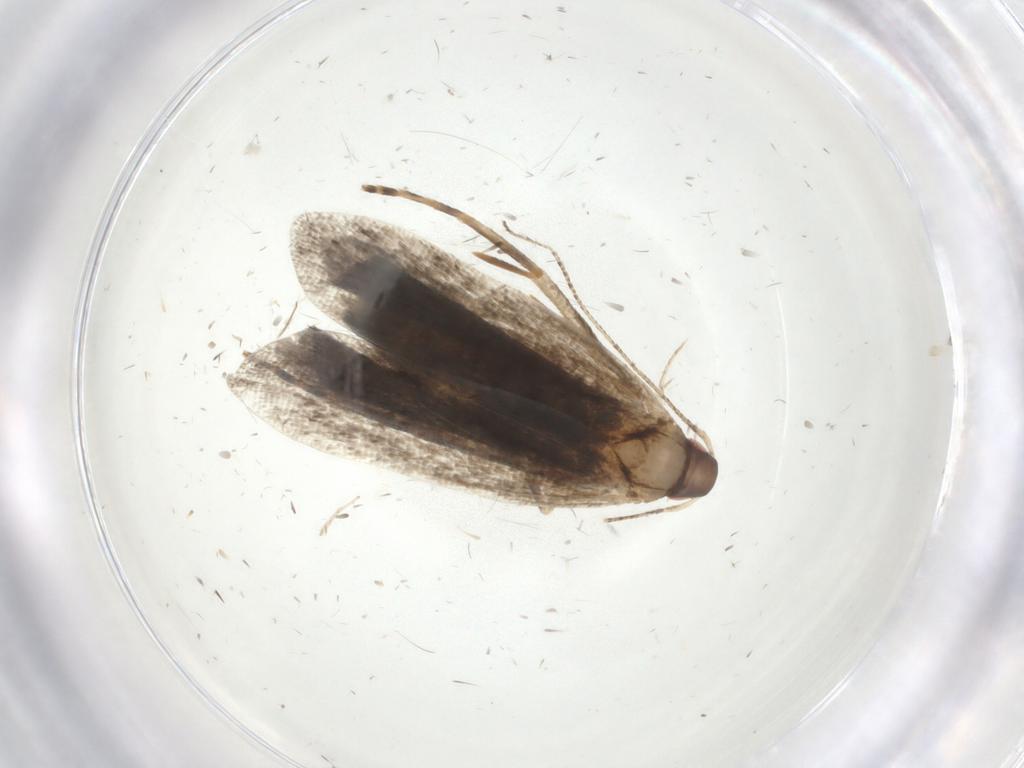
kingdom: Animalia
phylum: Arthropoda
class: Insecta
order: Lepidoptera
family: Gelechiidae
